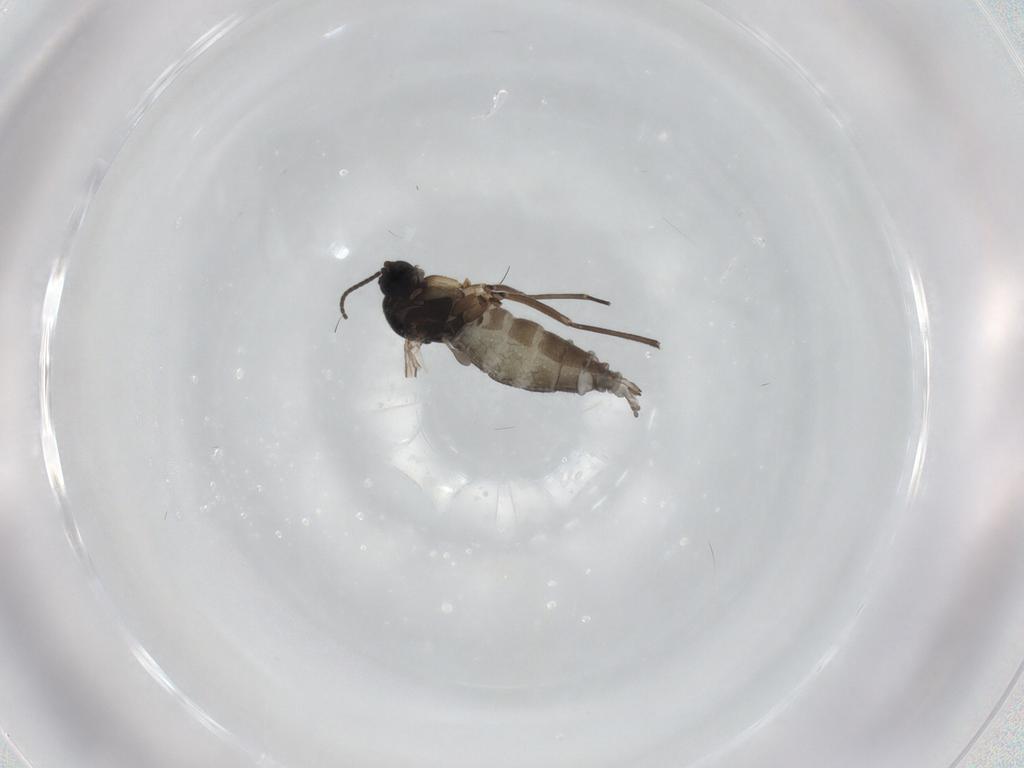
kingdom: Animalia
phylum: Arthropoda
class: Insecta
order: Diptera
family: Sciaridae
